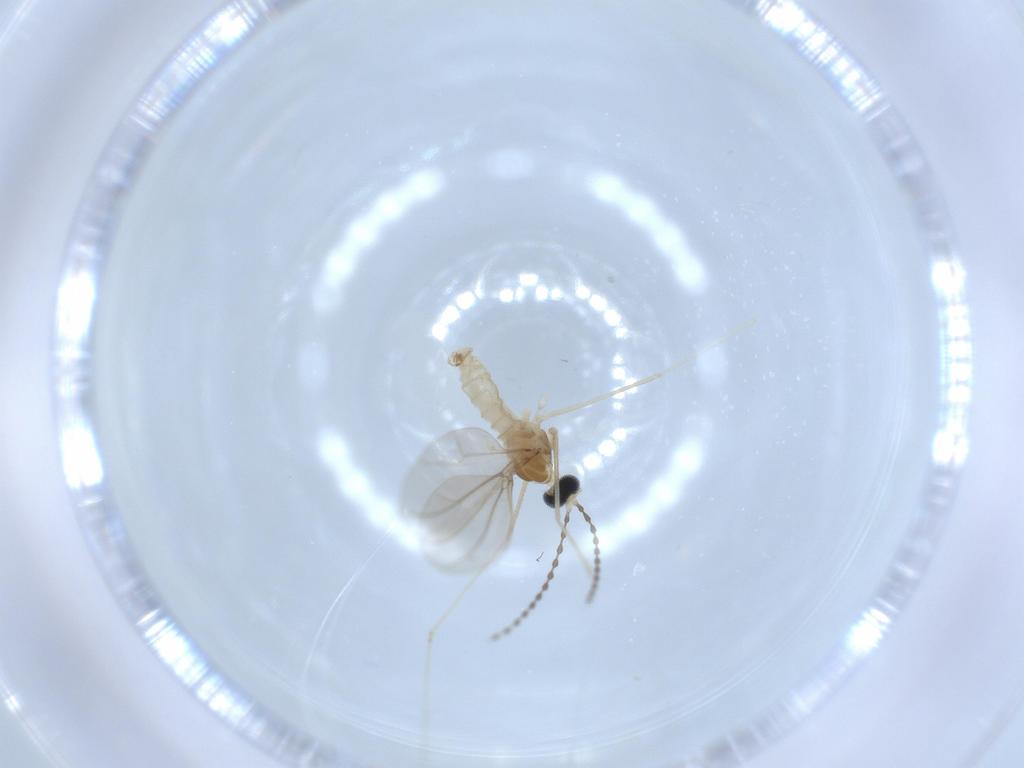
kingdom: Animalia
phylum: Arthropoda
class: Insecta
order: Diptera
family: Cecidomyiidae
